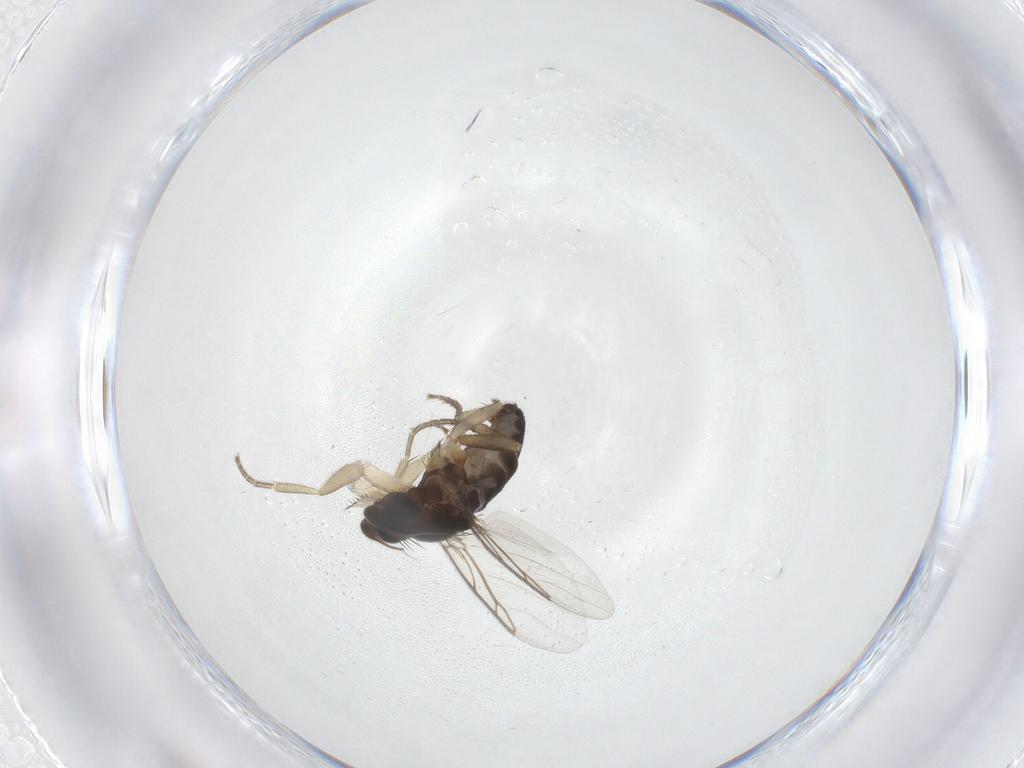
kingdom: Animalia
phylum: Arthropoda
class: Insecta
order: Diptera
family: Phoridae
